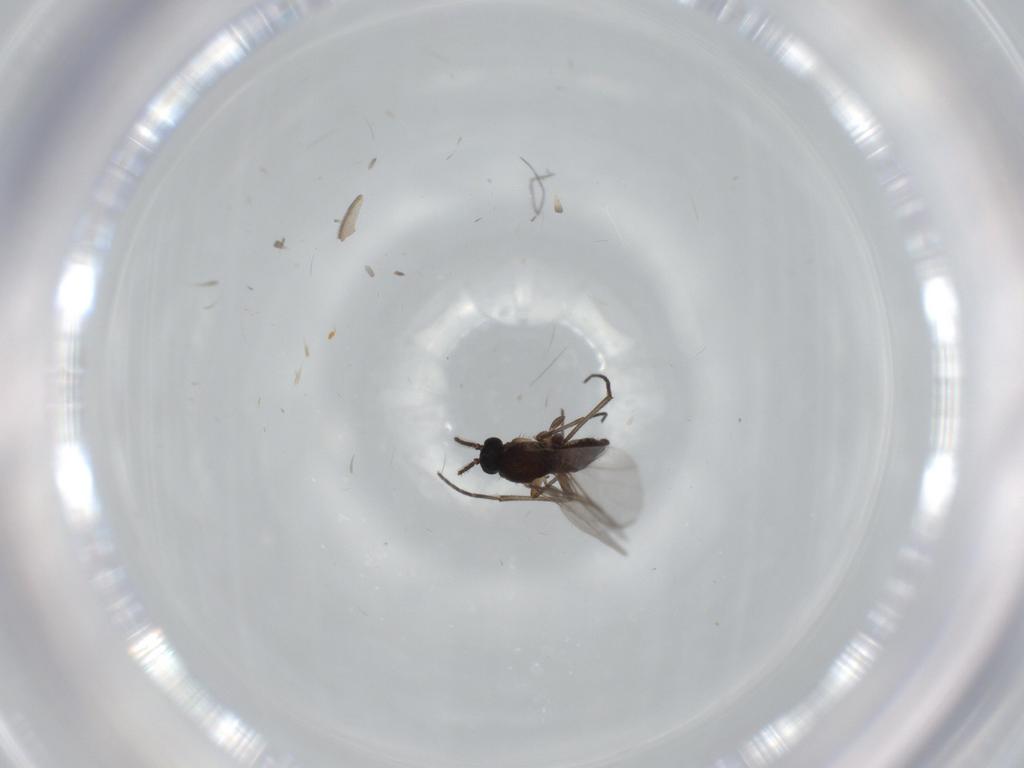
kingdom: Animalia
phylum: Arthropoda
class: Insecta
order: Diptera
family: Sciaridae
